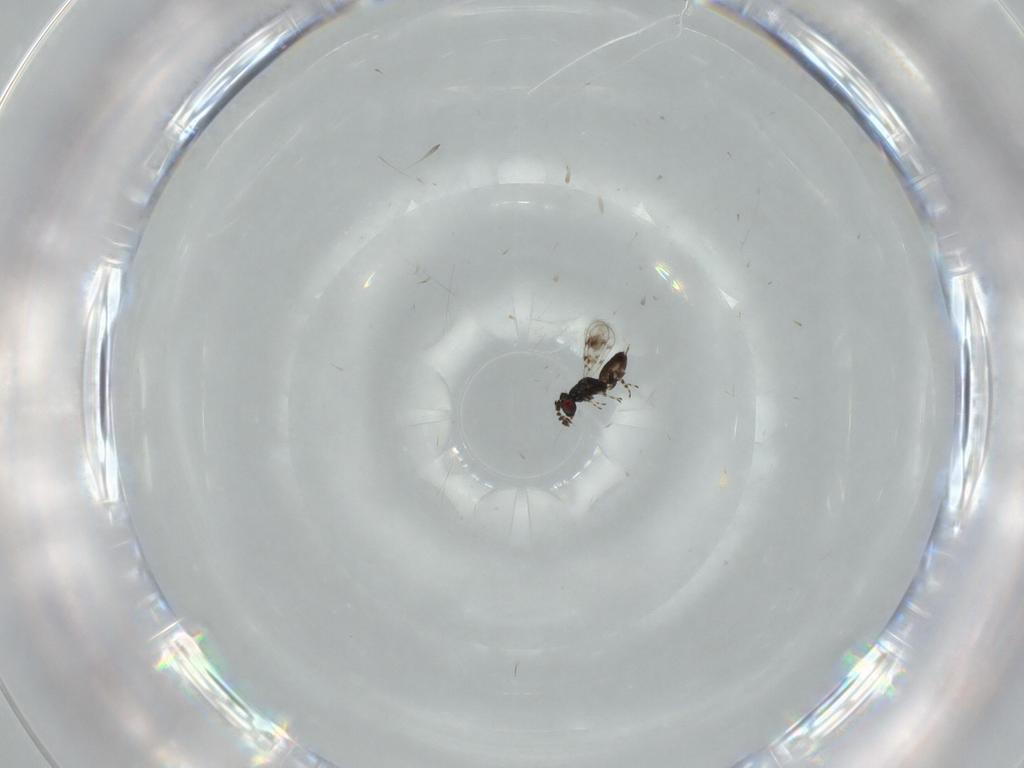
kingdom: Animalia
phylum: Arthropoda
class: Insecta
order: Hymenoptera
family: Eulophidae
